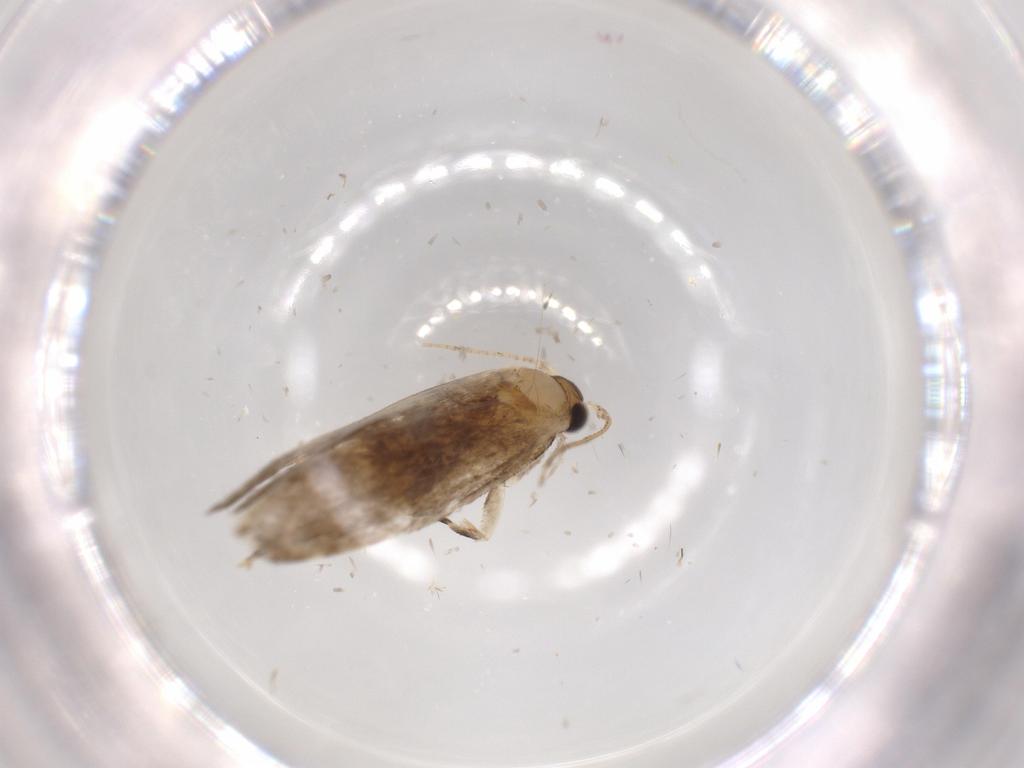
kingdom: Animalia
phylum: Arthropoda
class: Insecta
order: Lepidoptera
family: Tineidae
